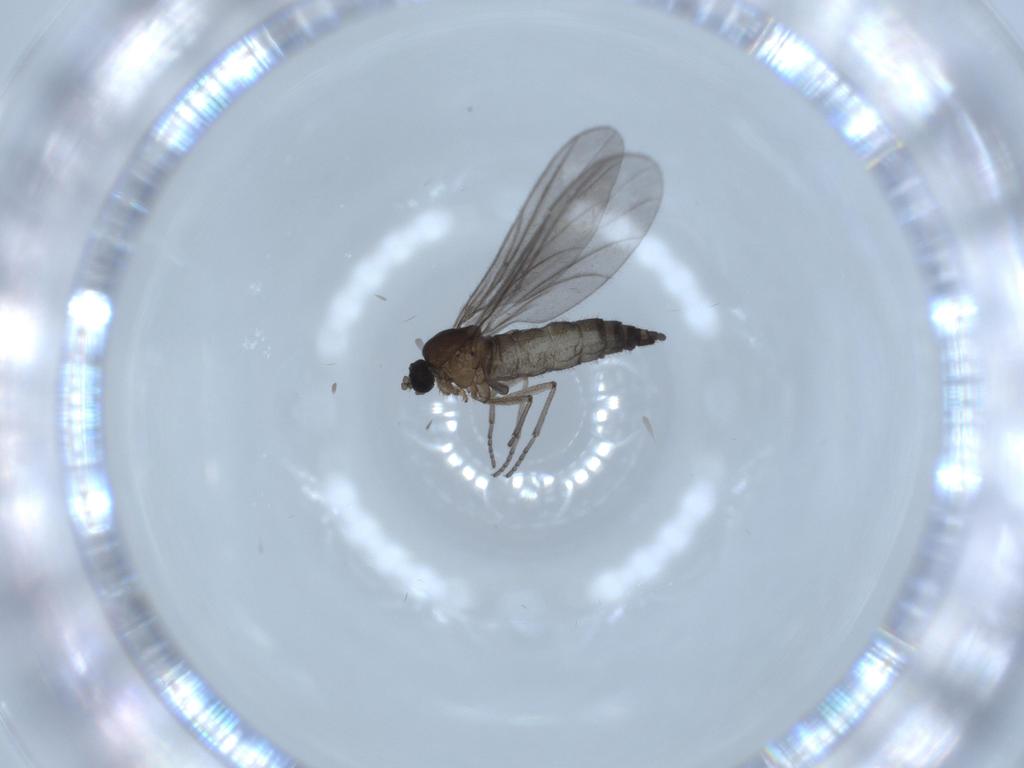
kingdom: Animalia
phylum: Arthropoda
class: Insecta
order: Diptera
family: Sciaridae
